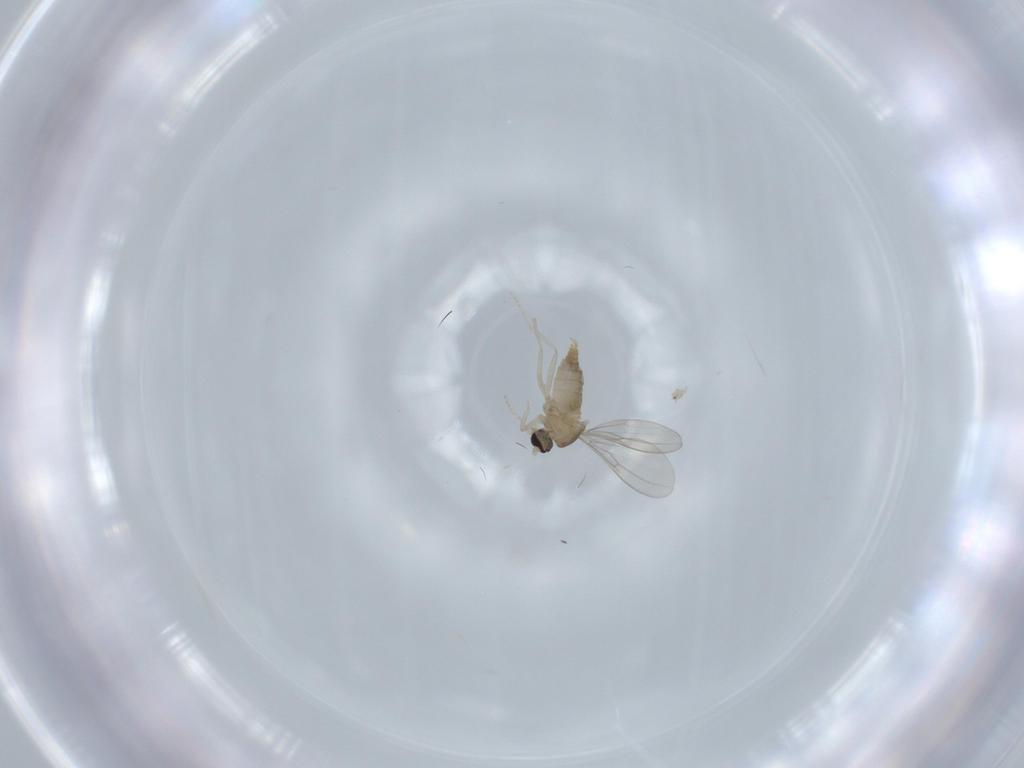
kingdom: Animalia
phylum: Arthropoda
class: Insecta
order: Diptera
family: Cecidomyiidae
